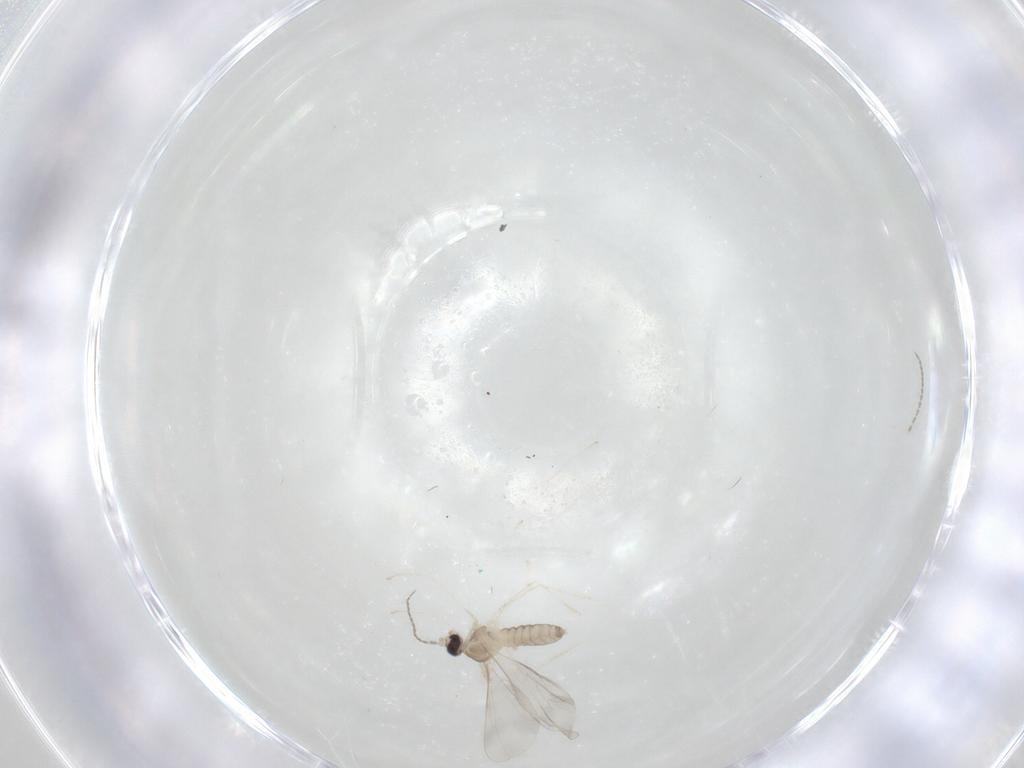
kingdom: Animalia
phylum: Arthropoda
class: Insecta
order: Diptera
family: Cecidomyiidae
